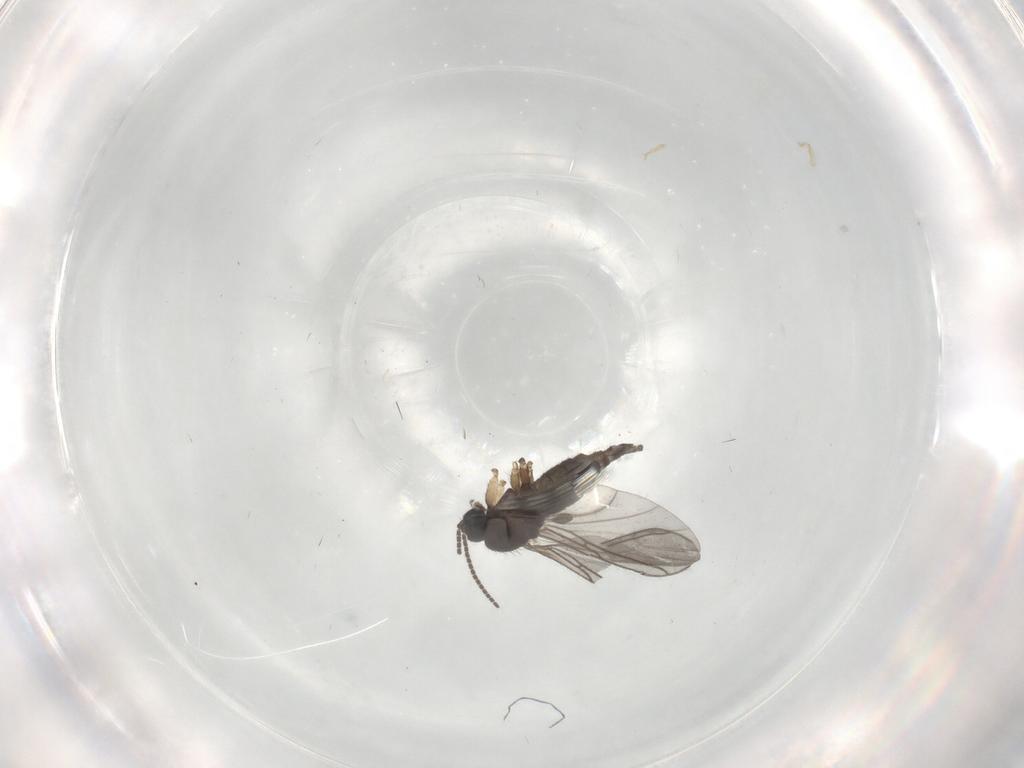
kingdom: Animalia
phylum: Arthropoda
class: Insecta
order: Diptera
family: Sciaridae
